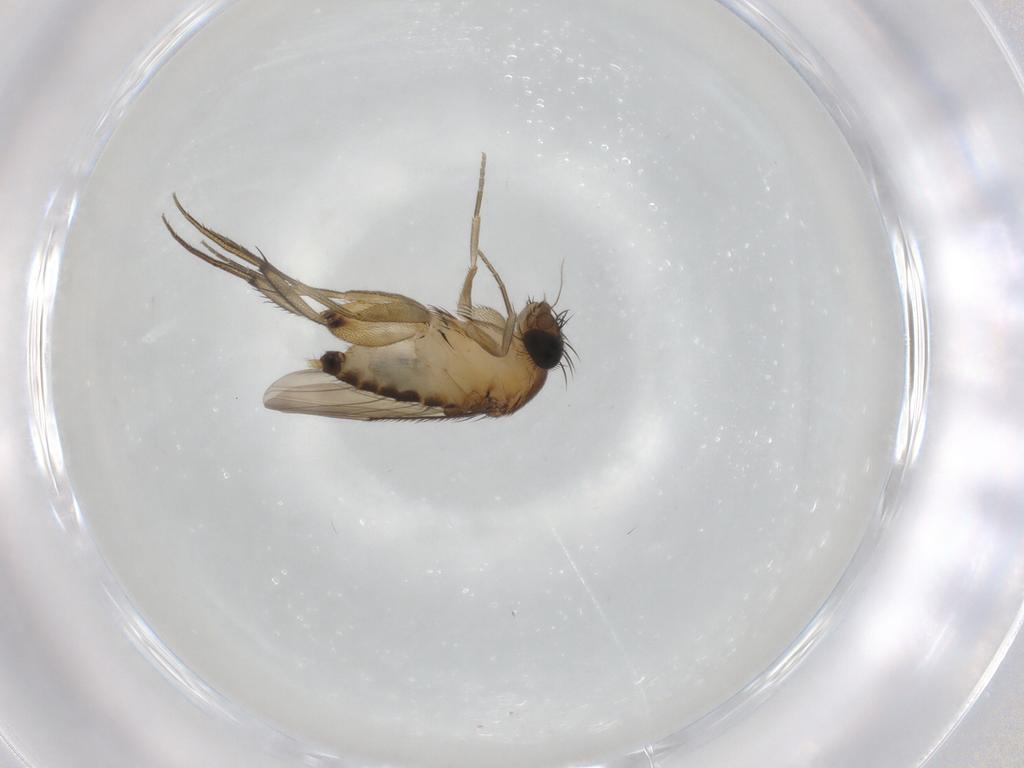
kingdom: Animalia
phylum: Arthropoda
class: Insecta
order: Diptera
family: Phoridae
